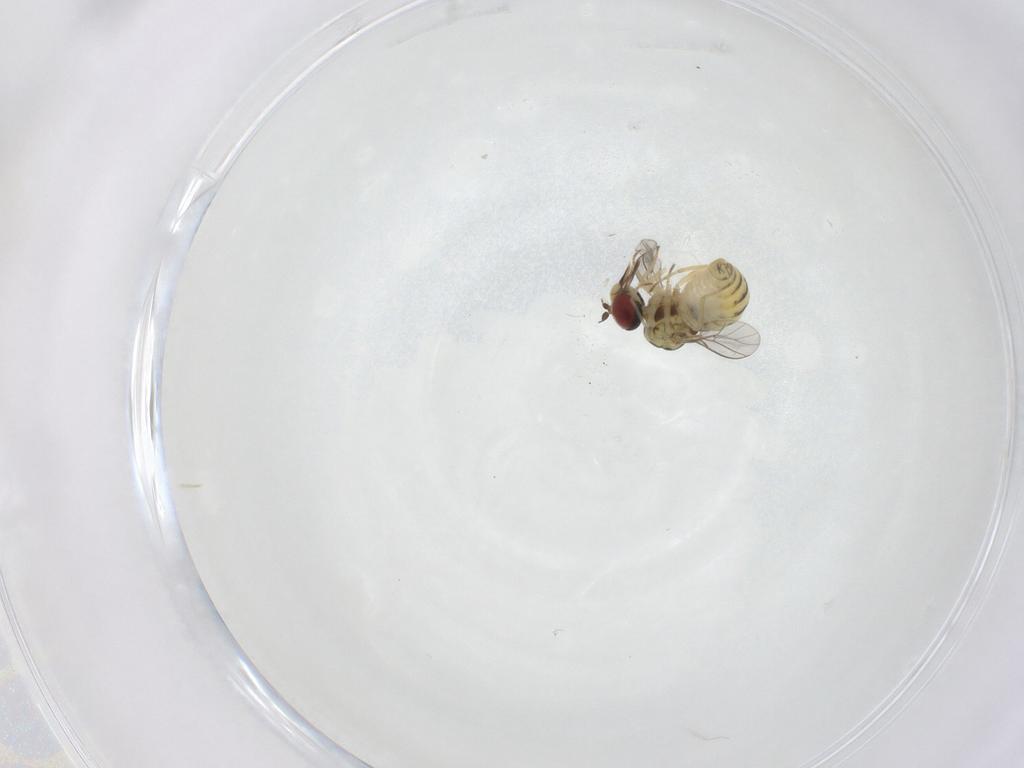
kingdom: Animalia
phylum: Arthropoda
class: Insecta
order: Diptera
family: Mythicomyiidae
